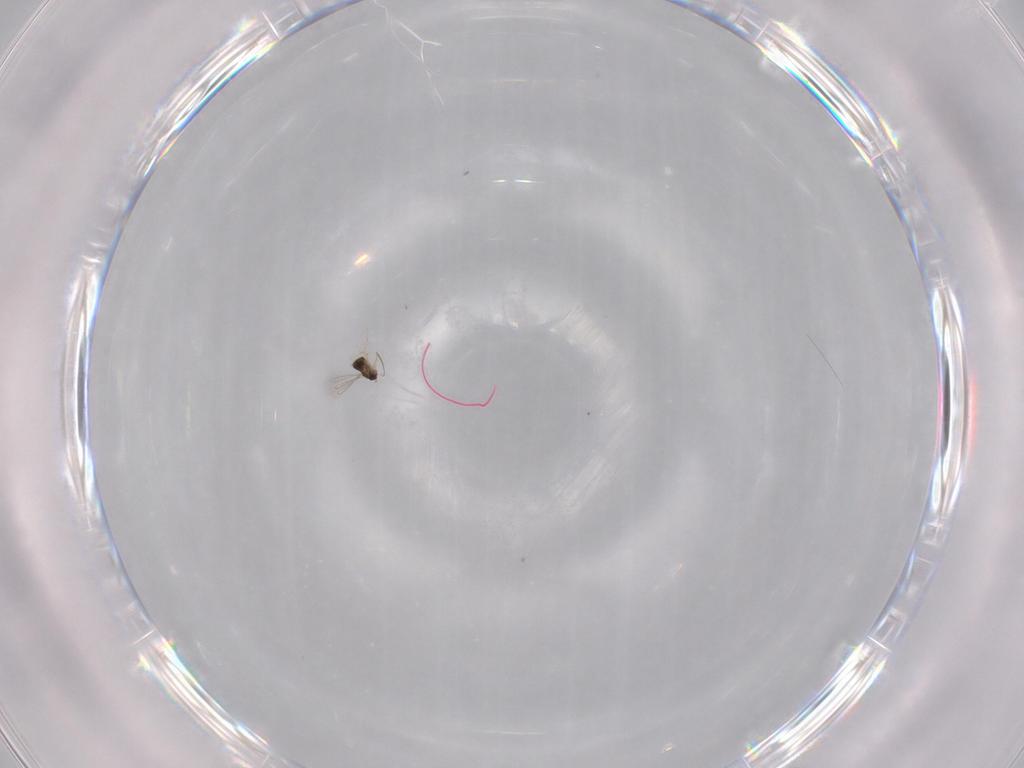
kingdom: Animalia
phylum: Arthropoda
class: Insecta
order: Hymenoptera
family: Mymaridae
